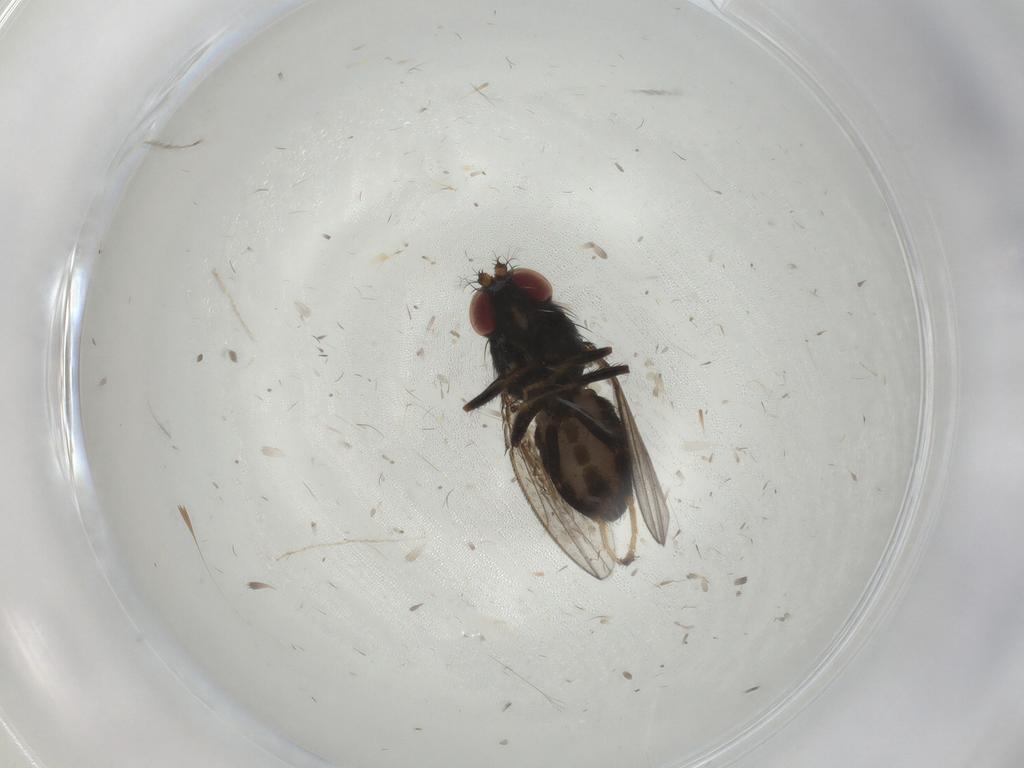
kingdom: Animalia
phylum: Arthropoda
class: Insecta
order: Diptera
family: Ephydridae
